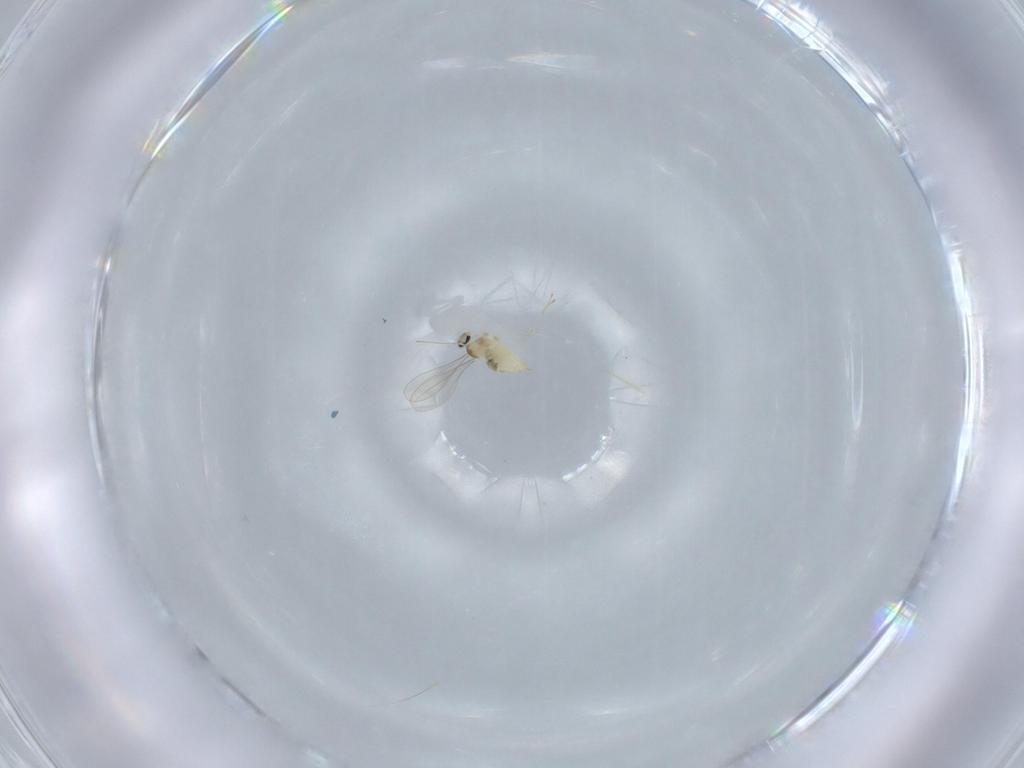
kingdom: Animalia
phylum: Arthropoda
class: Insecta
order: Diptera
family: Cecidomyiidae
